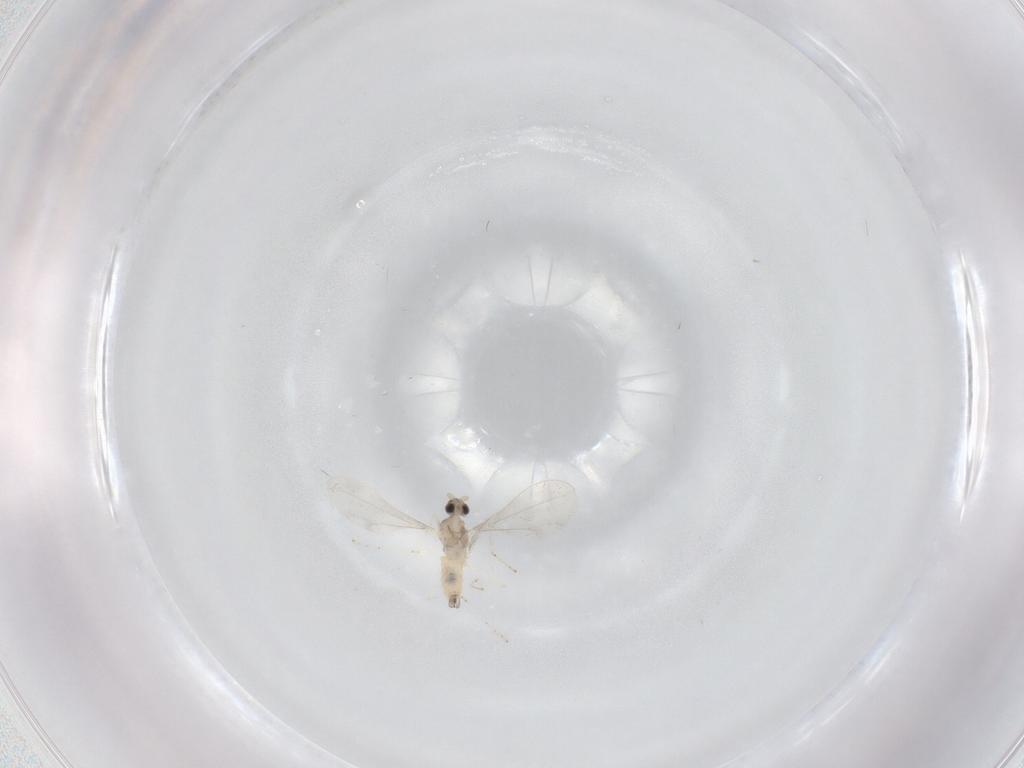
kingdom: Animalia
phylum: Arthropoda
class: Insecta
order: Diptera
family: Cecidomyiidae
